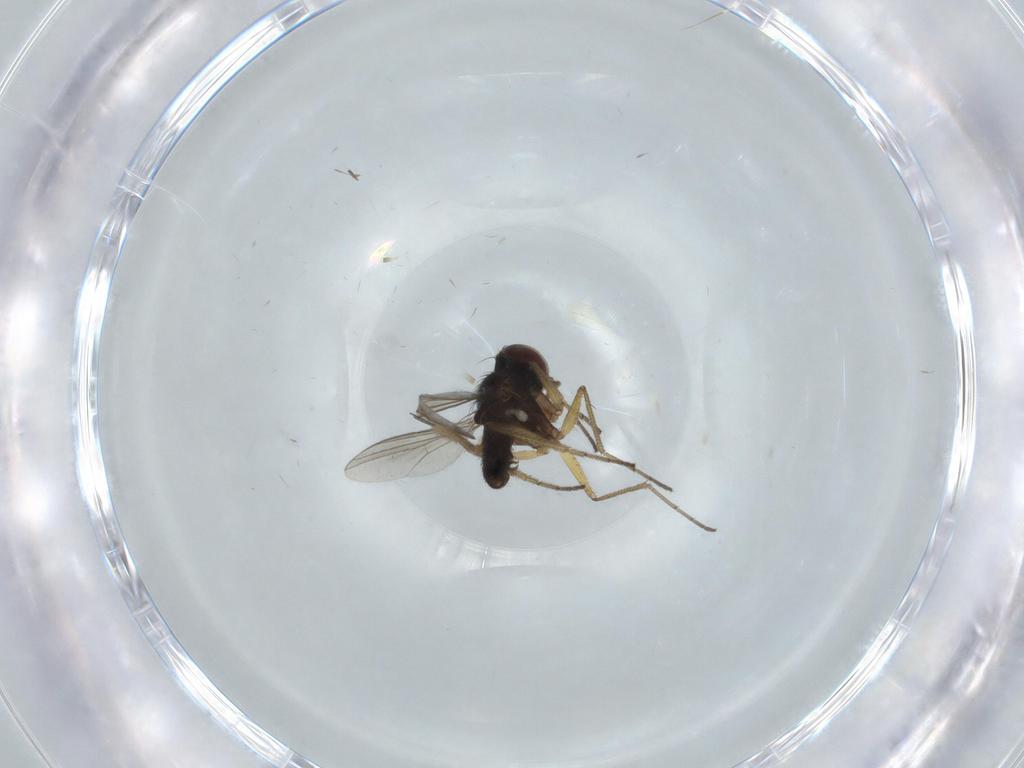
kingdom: Animalia
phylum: Arthropoda
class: Insecta
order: Diptera
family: Dolichopodidae
